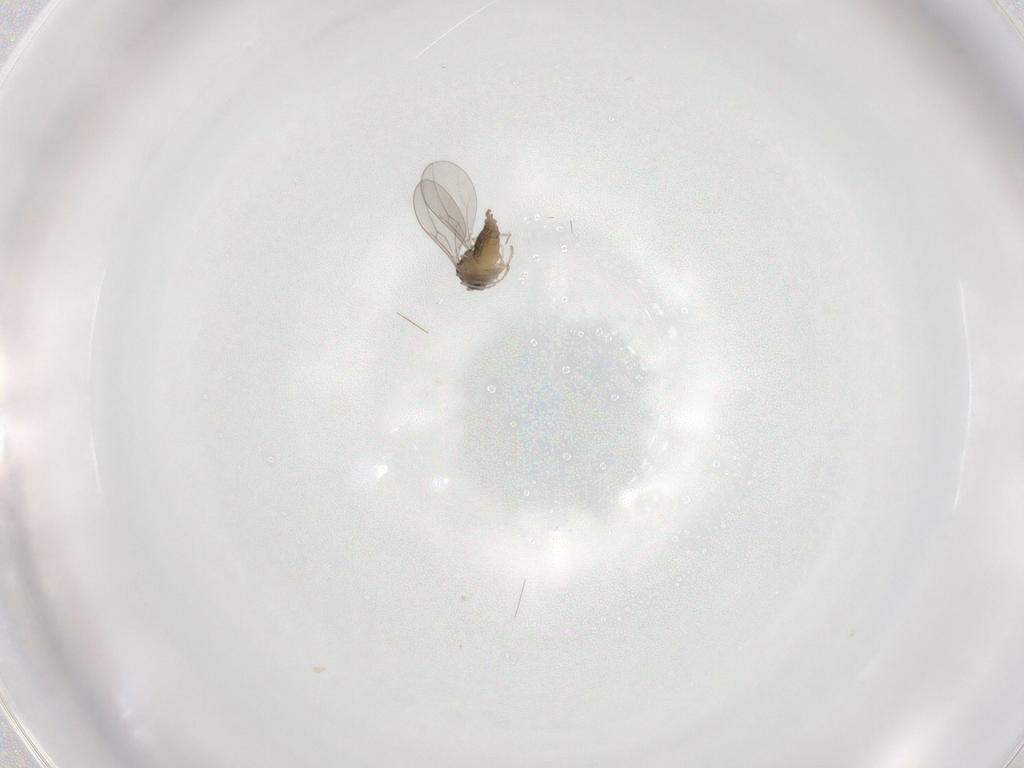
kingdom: Animalia
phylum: Arthropoda
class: Insecta
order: Diptera
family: Cecidomyiidae
